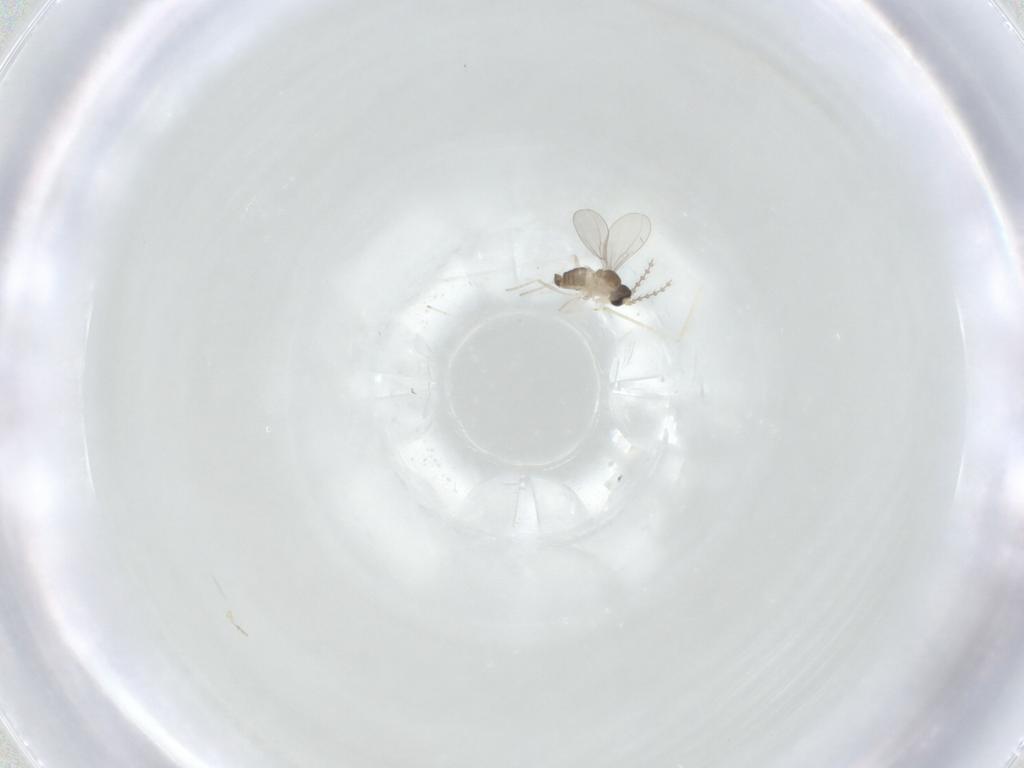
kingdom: Animalia
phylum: Arthropoda
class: Insecta
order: Diptera
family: Cecidomyiidae
